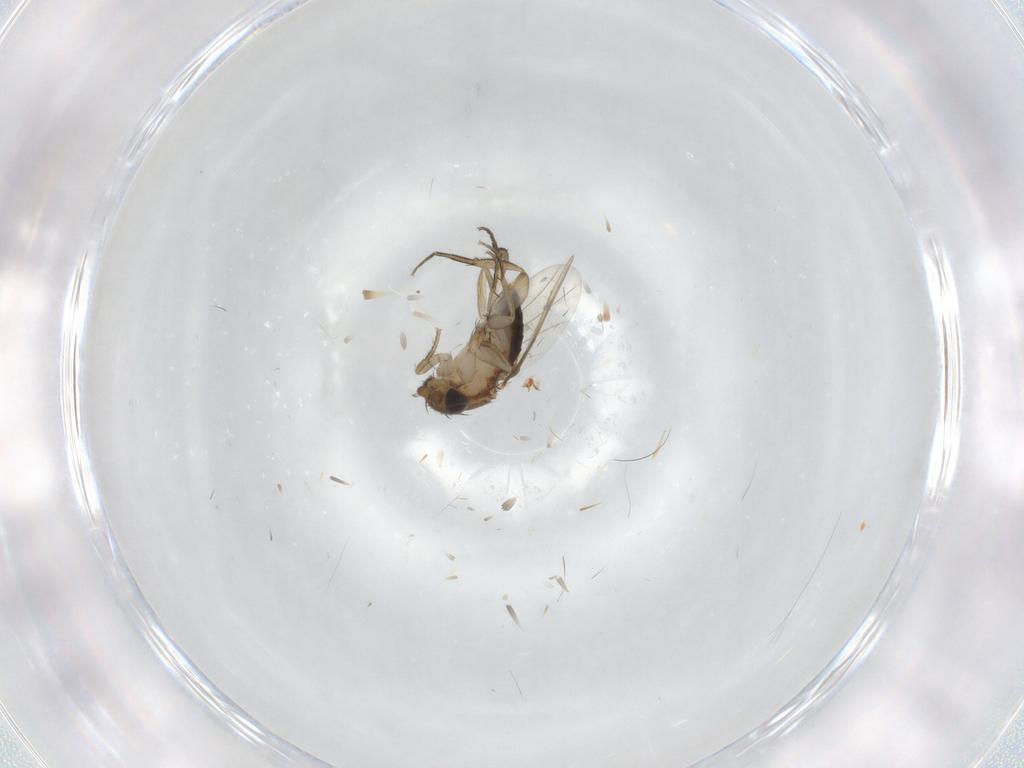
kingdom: Animalia
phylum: Arthropoda
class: Insecta
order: Diptera
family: Phoridae
